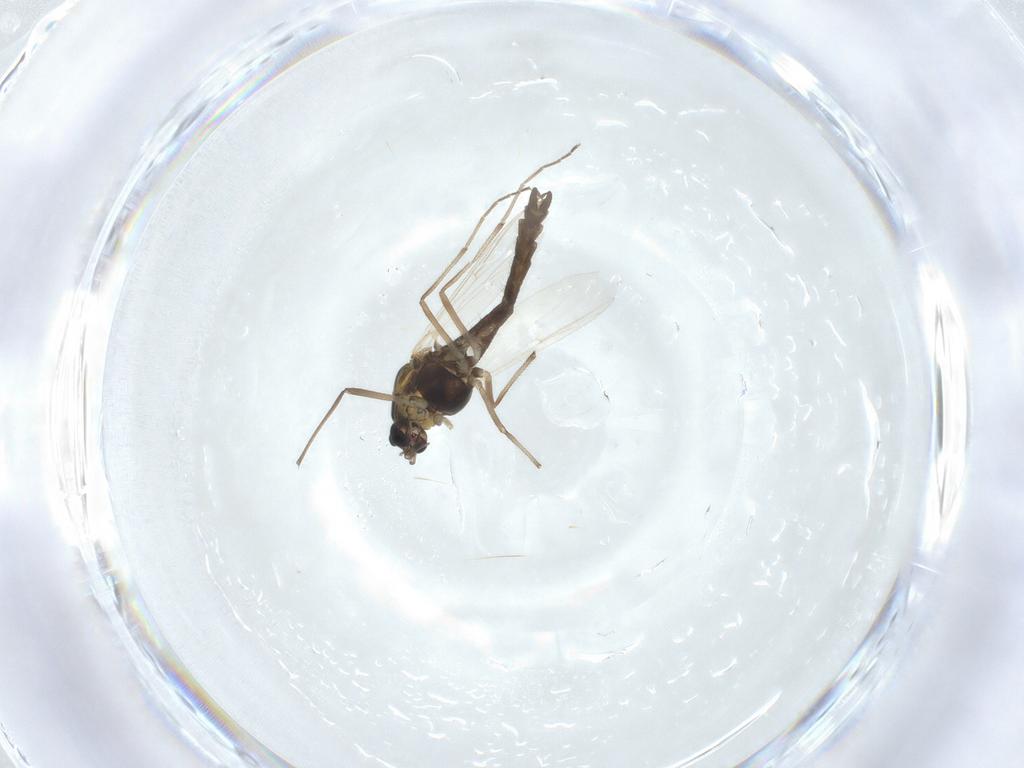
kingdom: Animalia
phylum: Arthropoda
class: Insecta
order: Diptera
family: Chironomidae
